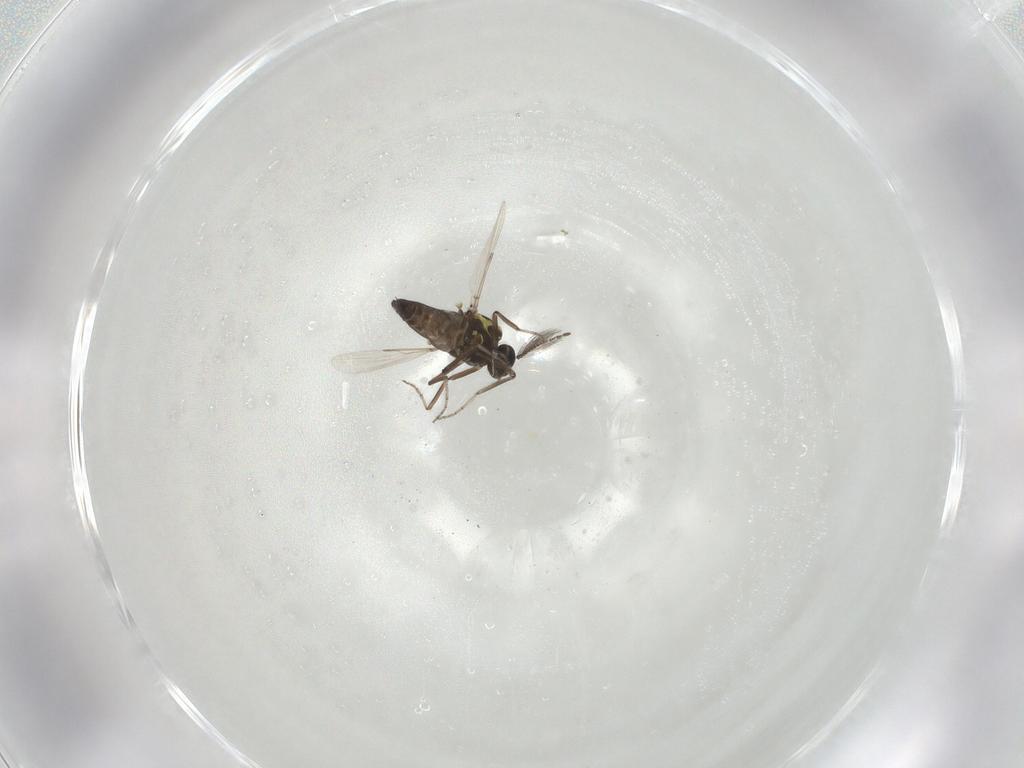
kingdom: Animalia
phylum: Arthropoda
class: Insecta
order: Diptera
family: Ceratopogonidae
